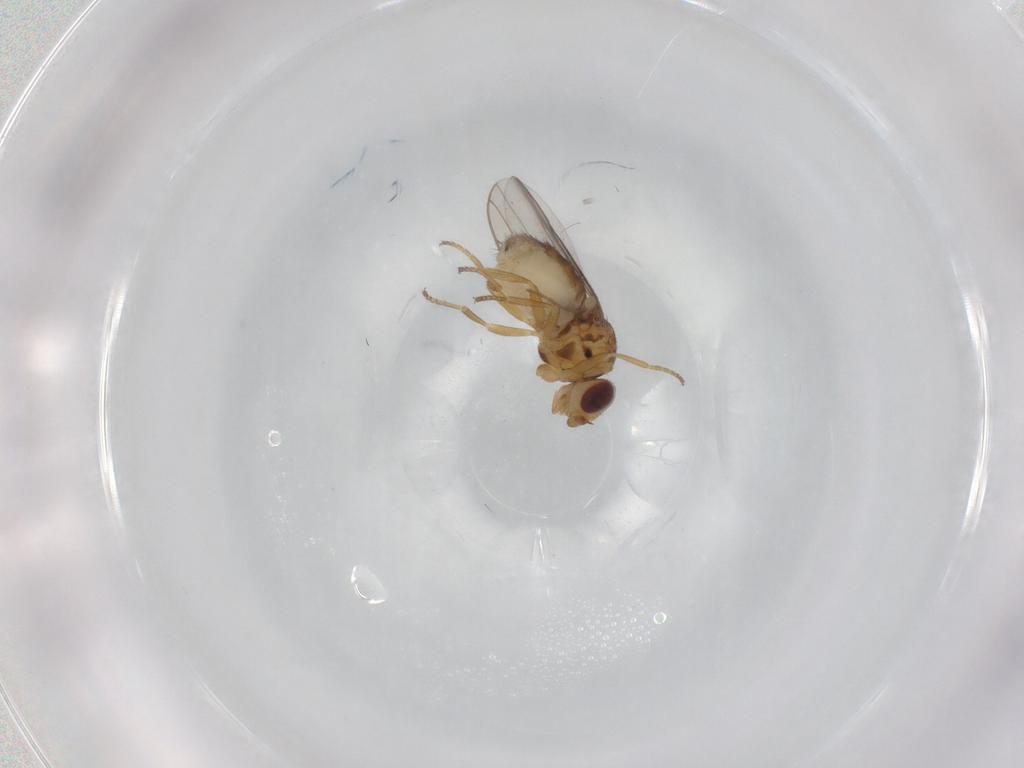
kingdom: Animalia
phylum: Arthropoda
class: Insecta
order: Diptera
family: Chloropidae
